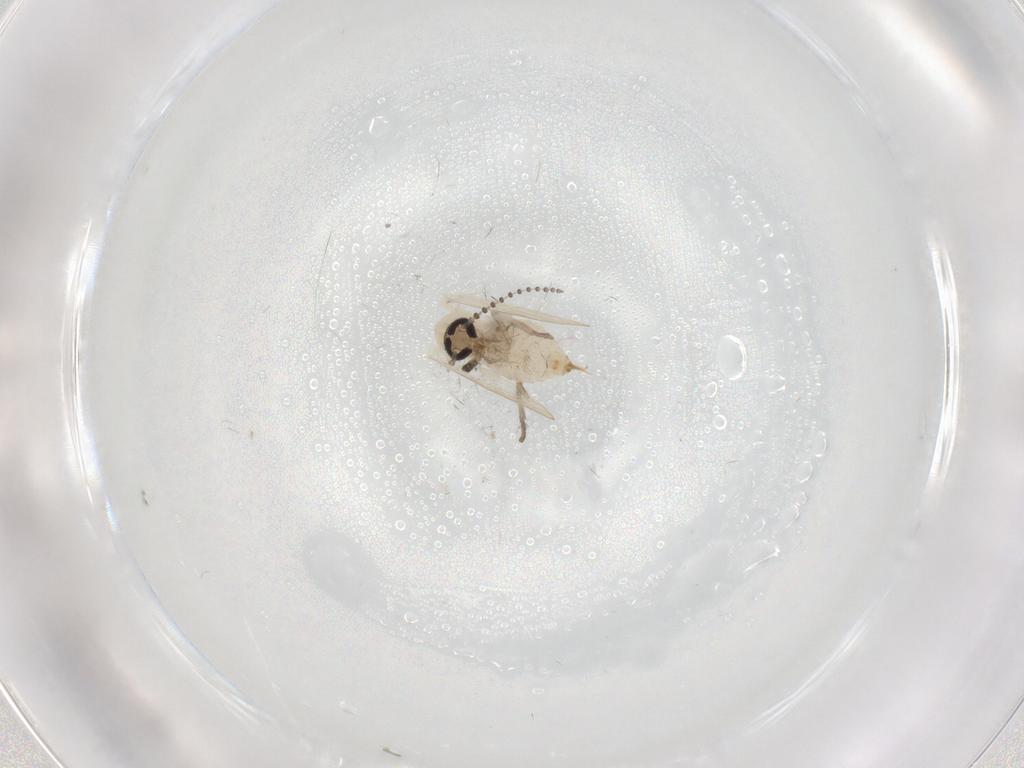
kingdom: Animalia
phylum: Arthropoda
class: Insecta
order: Diptera
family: Psychodidae
